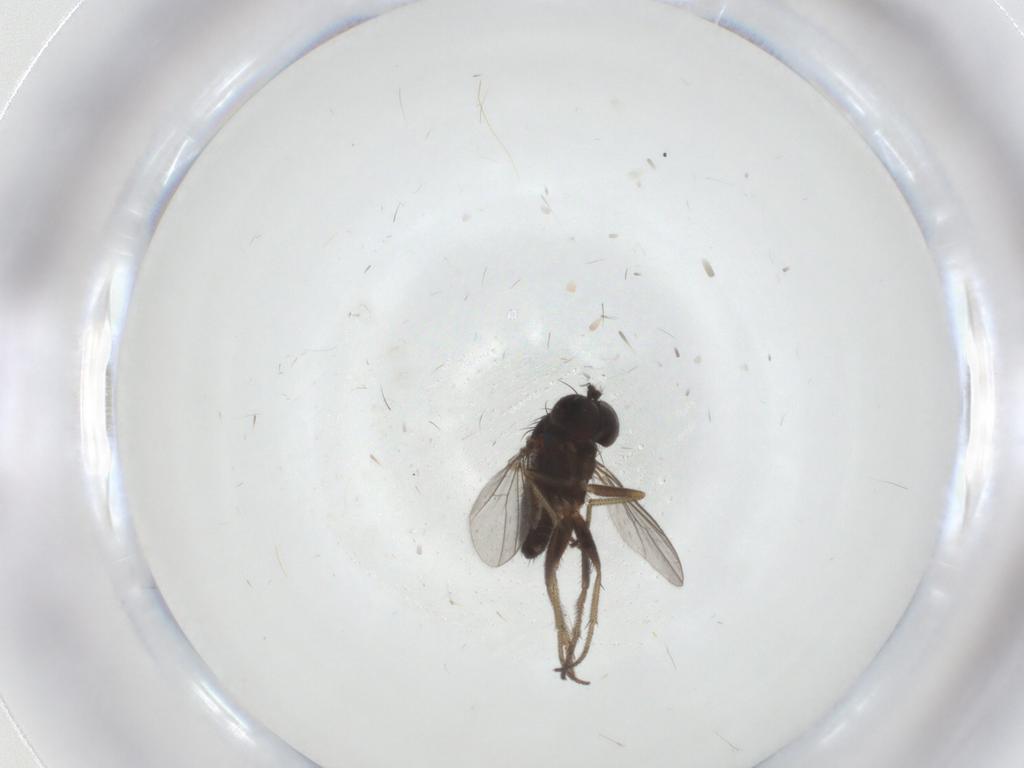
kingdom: Animalia
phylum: Arthropoda
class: Insecta
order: Diptera
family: Dolichopodidae
